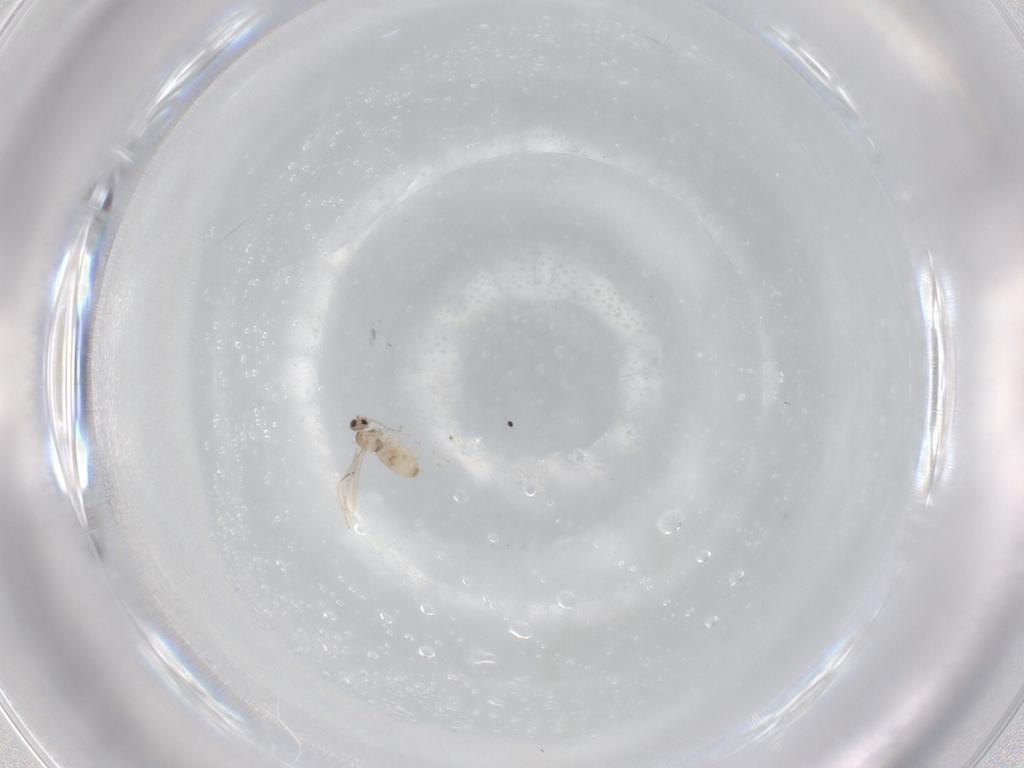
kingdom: Animalia
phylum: Arthropoda
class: Insecta
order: Diptera
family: Cecidomyiidae
